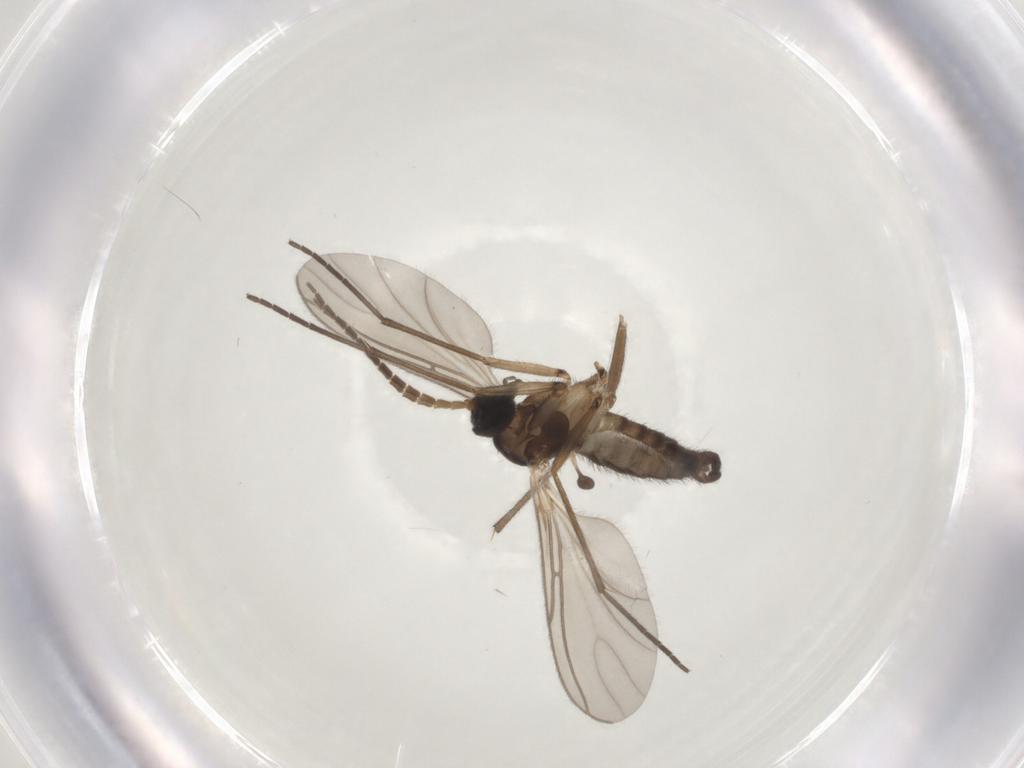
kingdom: Animalia
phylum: Arthropoda
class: Insecta
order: Diptera
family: Sciaridae
